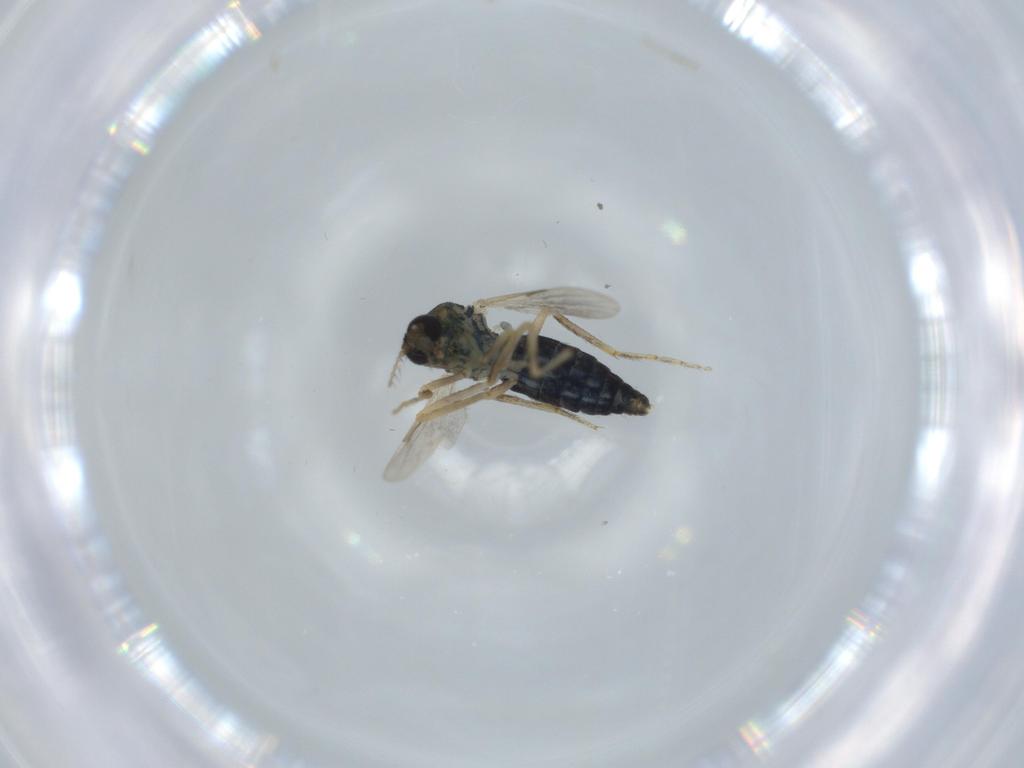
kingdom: Animalia
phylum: Arthropoda
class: Insecta
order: Diptera
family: Ceratopogonidae
